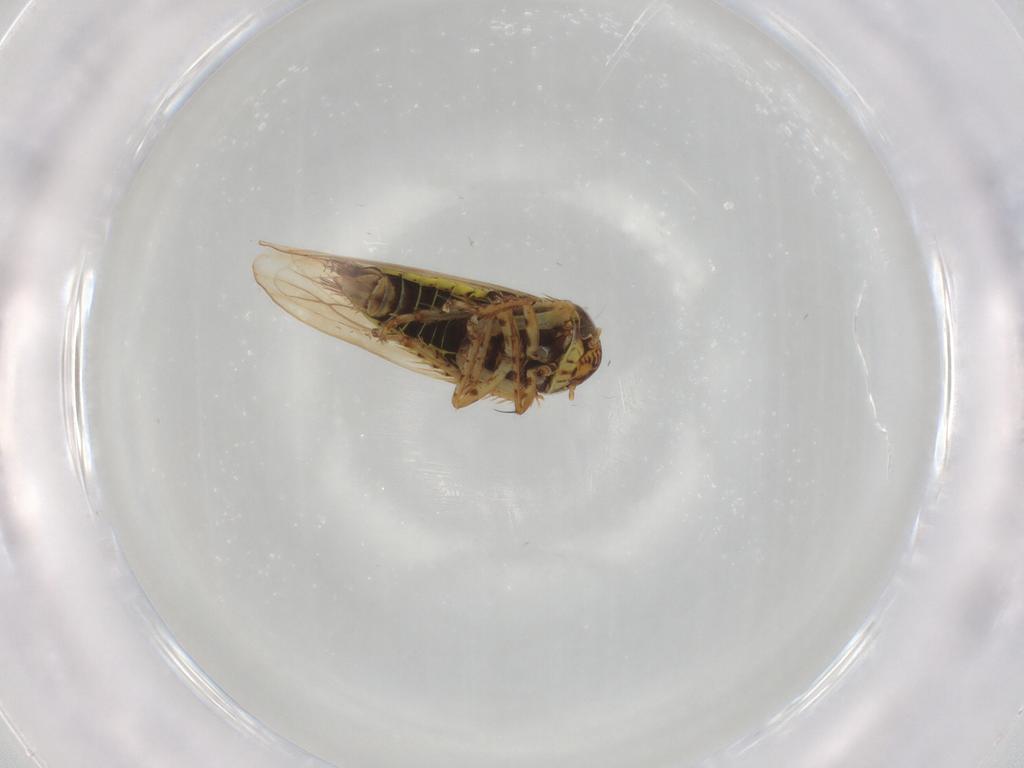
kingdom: Animalia
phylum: Arthropoda
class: Insecta
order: Hemiptera
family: Cicadellidae
